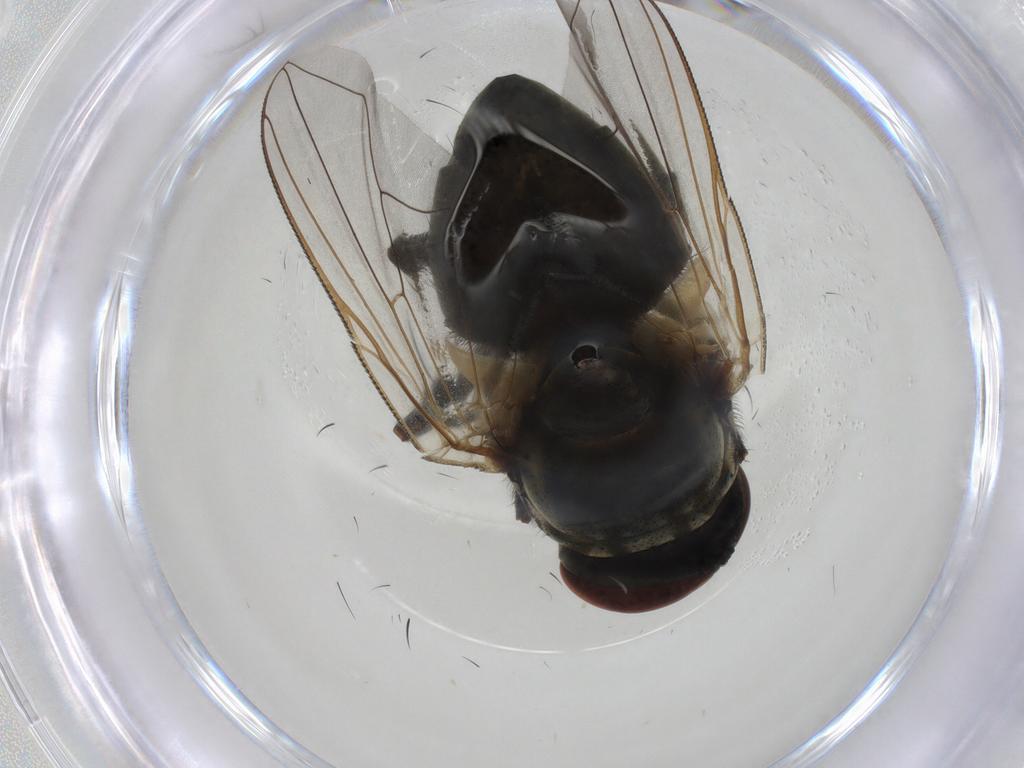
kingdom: Animalia
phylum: Arthropoda
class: Insecta
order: Diptera
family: Muscidae
